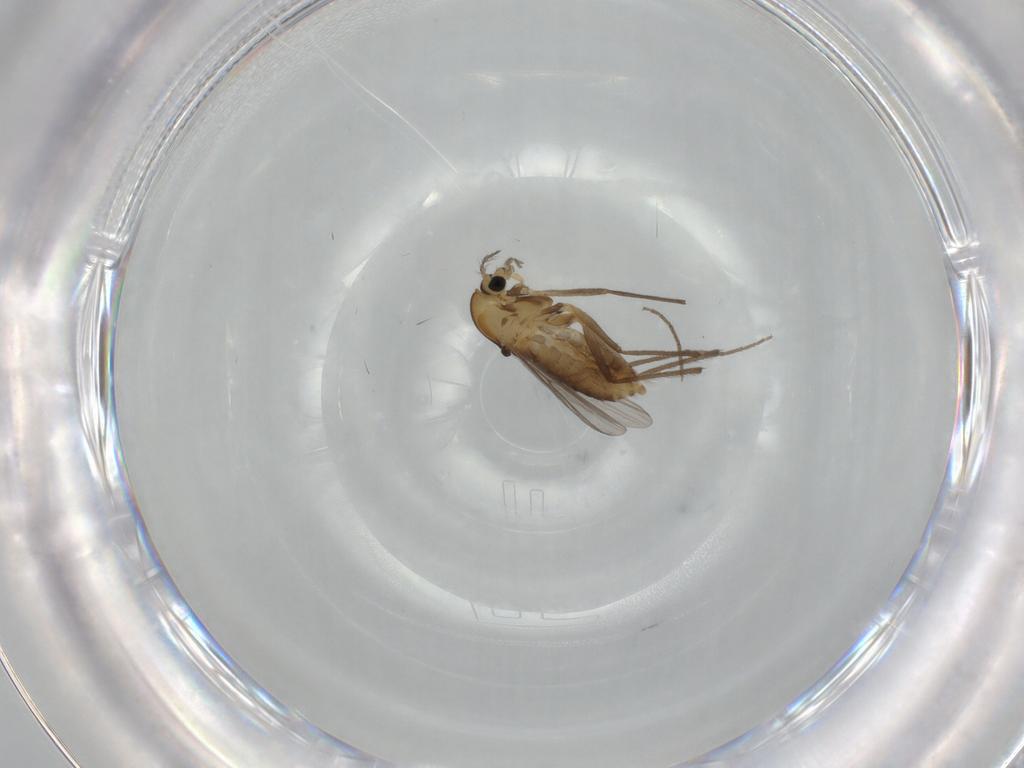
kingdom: Animalia
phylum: Arthropoda
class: Insecta
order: Diptera
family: Chironomidae
